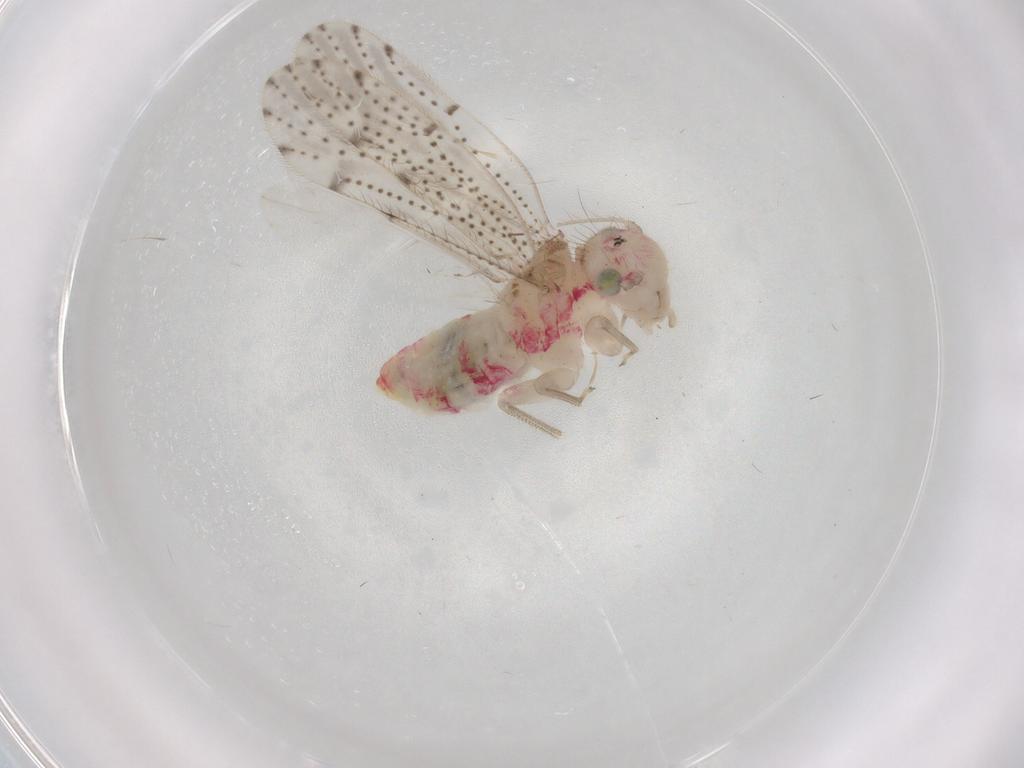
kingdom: Animalia
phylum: Arthropoda
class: Insecta
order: Psocodea
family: Hemipsocidae
